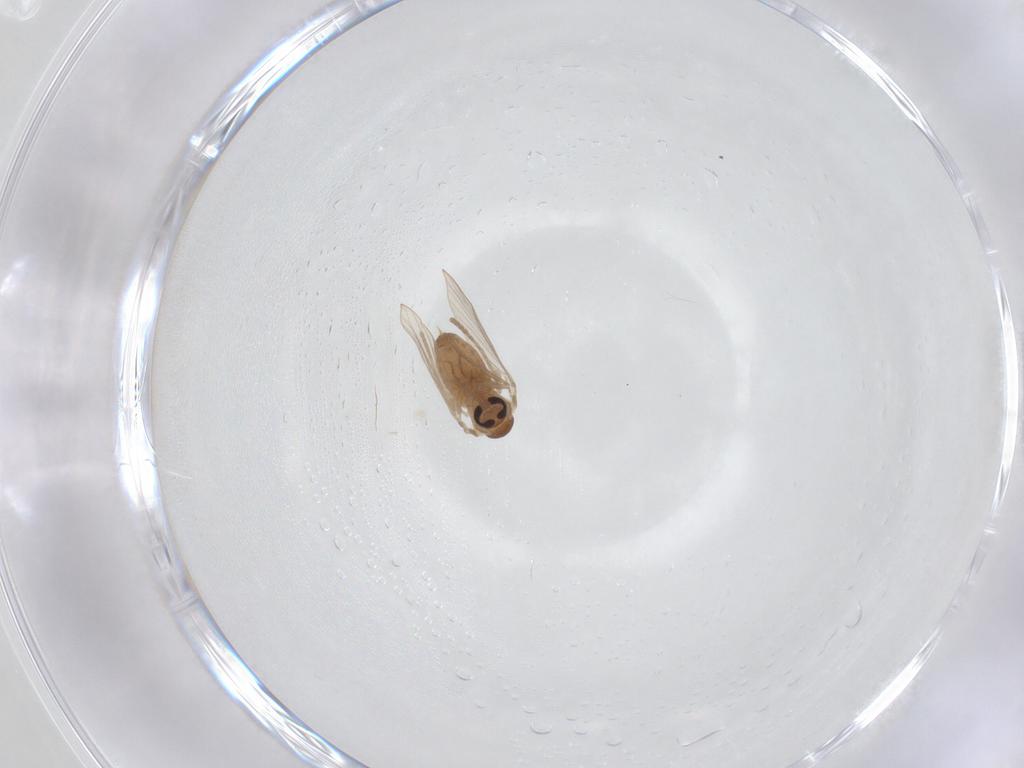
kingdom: Animalia
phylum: Arthropoda
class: Insecta
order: Diptera
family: Psychodidae
